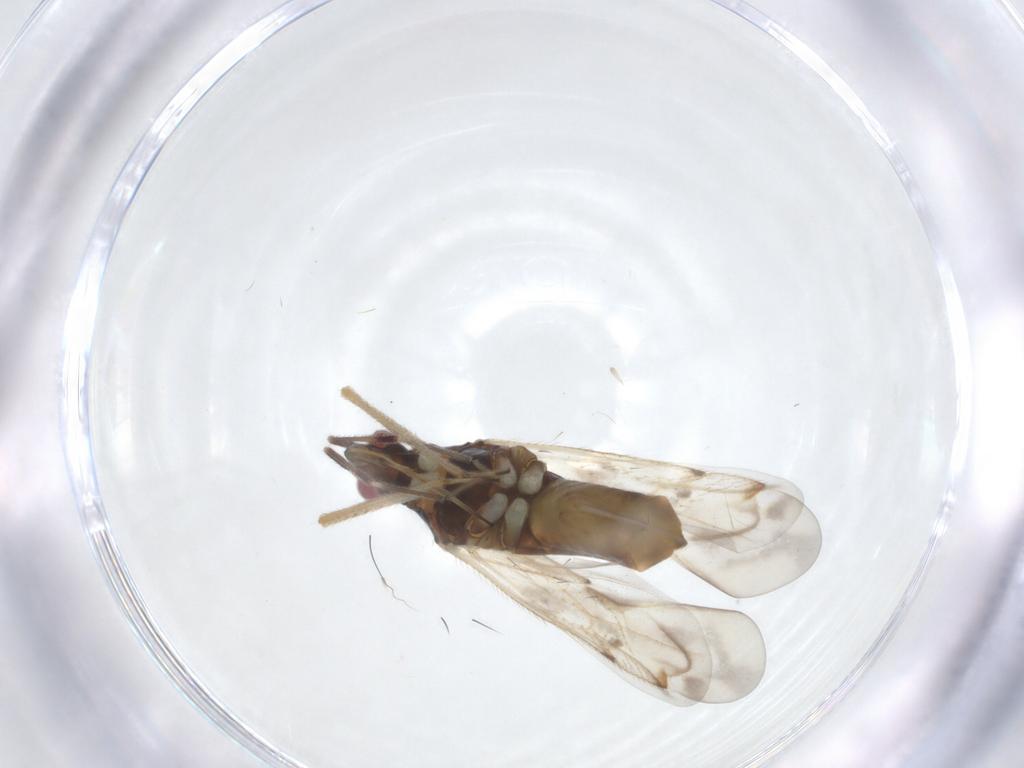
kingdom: Animalia
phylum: Arthropoda
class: Insecta
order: Hemiptera
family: Miridae
